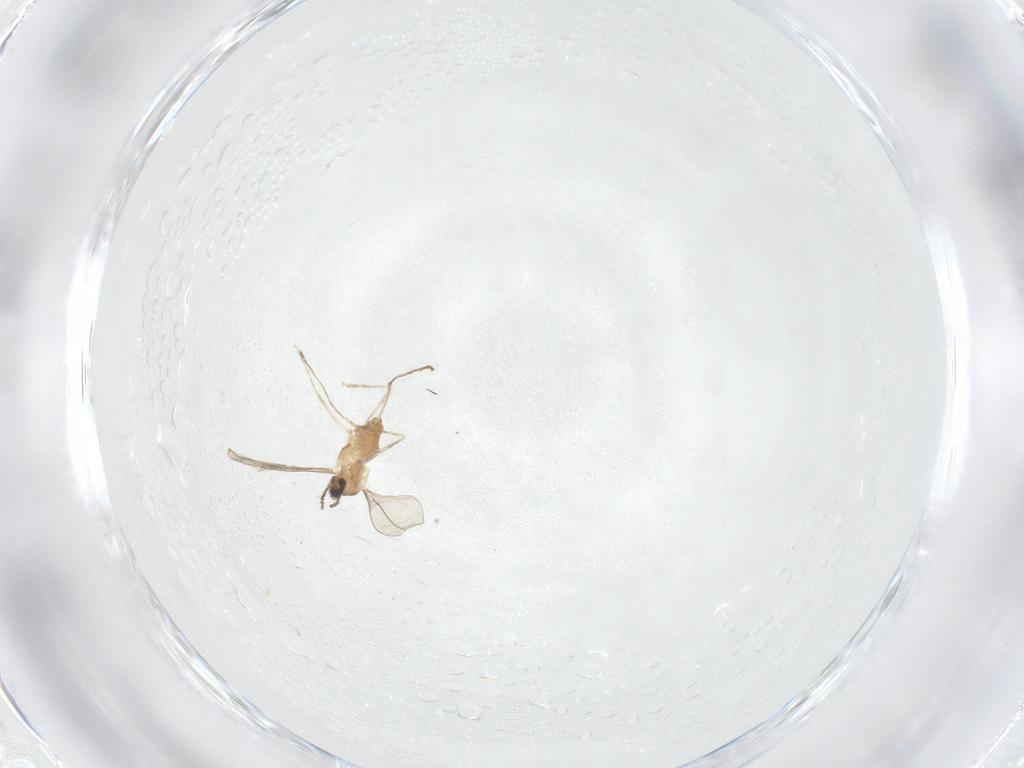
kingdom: Animalia
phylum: Arthropoda
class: Insecta
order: Diptera
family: Cecidomyiidae
